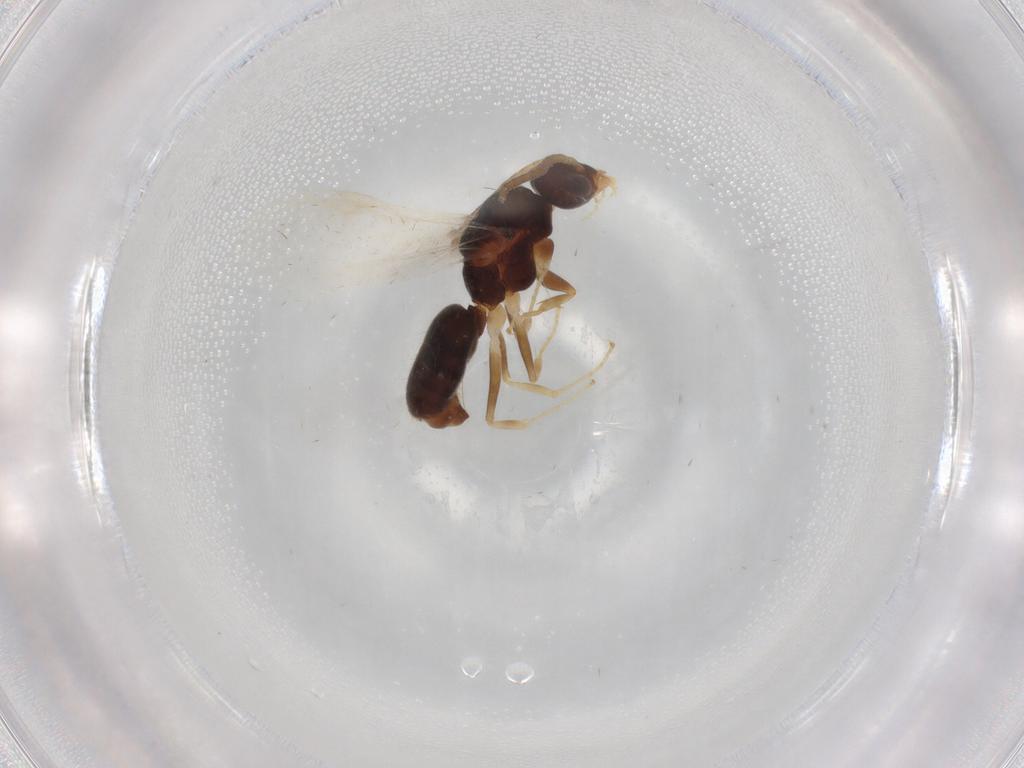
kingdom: Animalia
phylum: Arthropoda
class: Insecta
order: Hymenoptera
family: Formicidae
